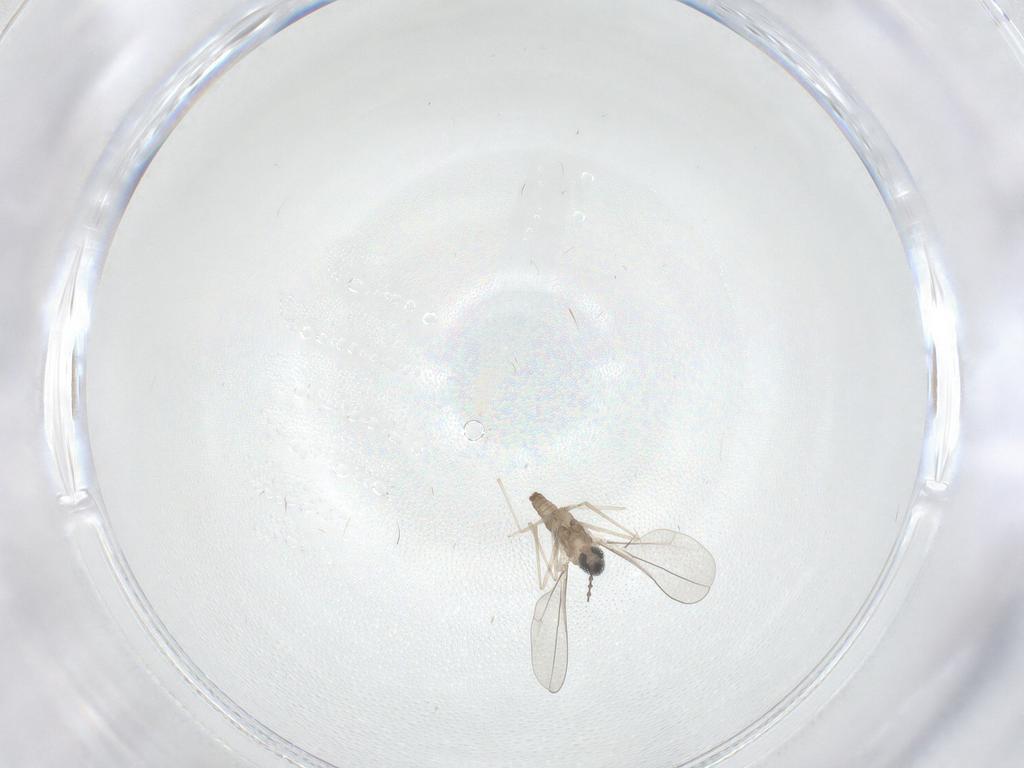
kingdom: Animalia
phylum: Arthropoda
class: Insecta
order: Diptera
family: Cecidomyiidae
